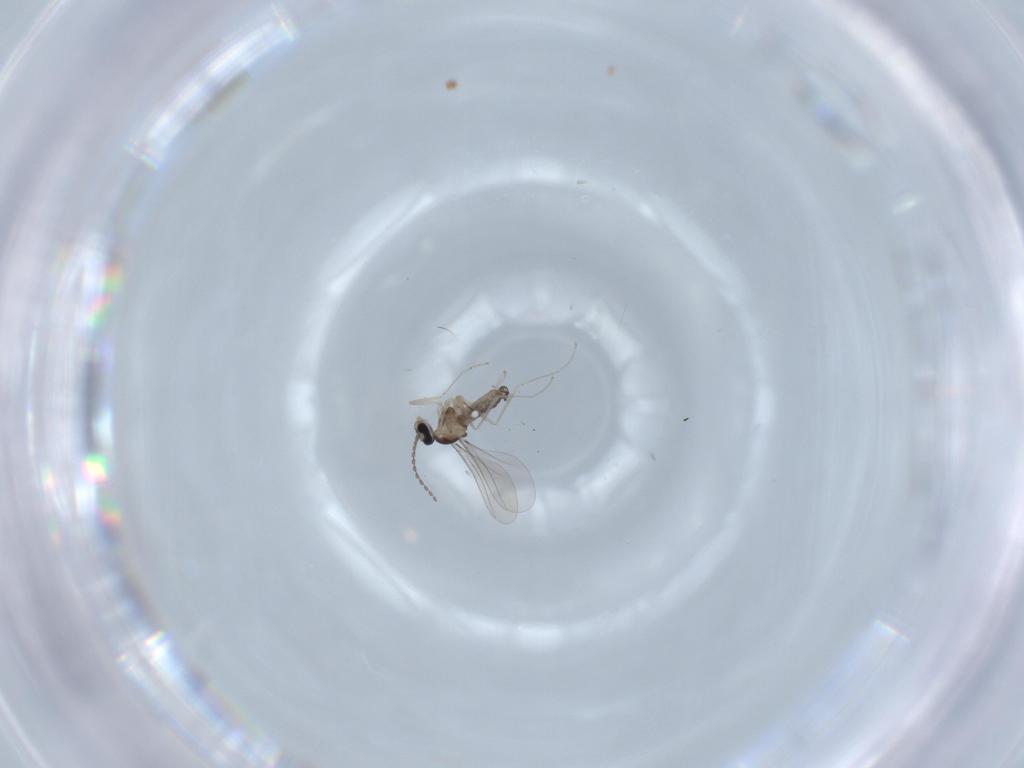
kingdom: Animalia
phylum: Arthropoda
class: Insecta
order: Diptera
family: Cecidomyiidae
